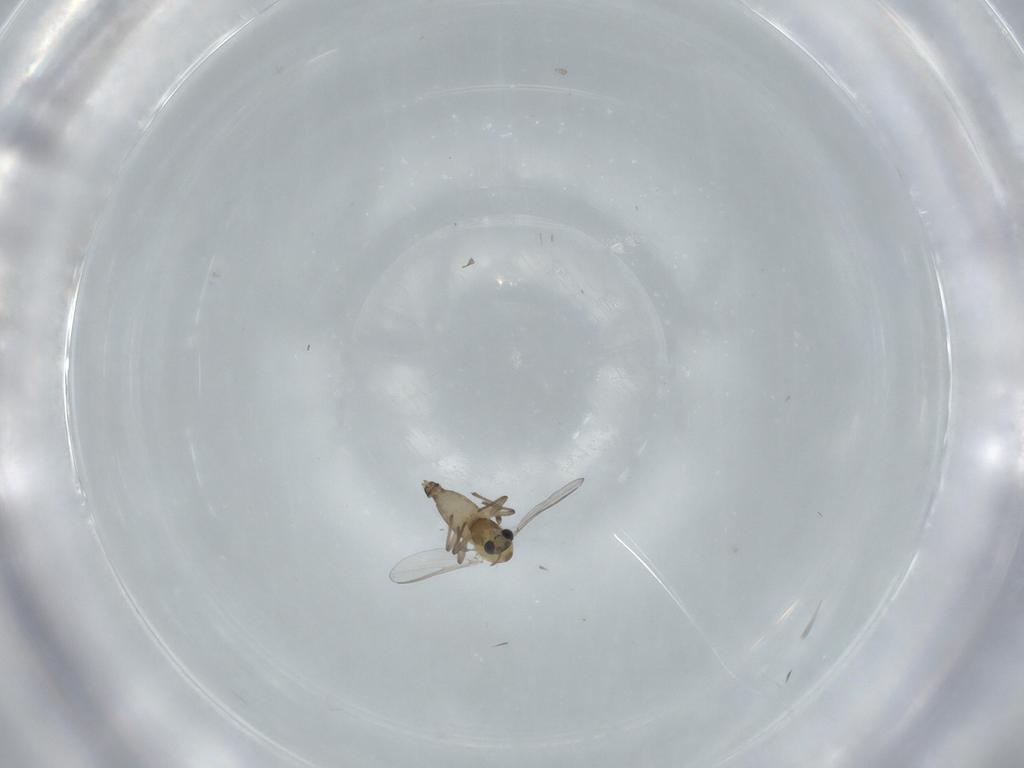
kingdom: Animalia
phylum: Arthropoda
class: Insecta
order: Diptera
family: Chironomidae
